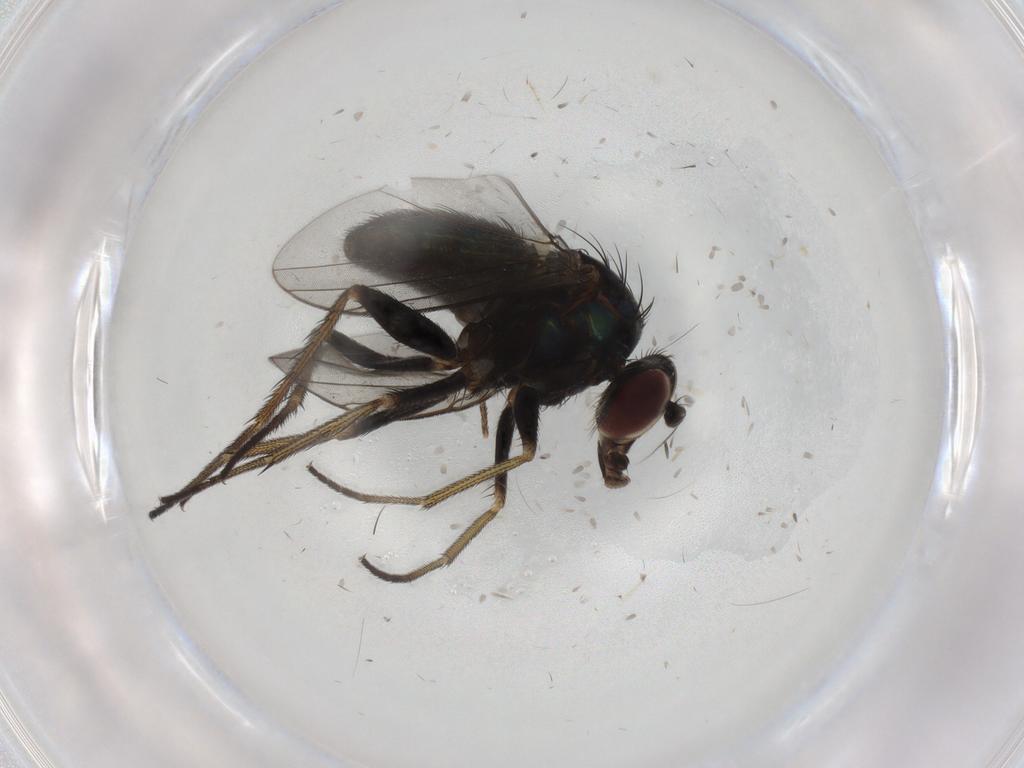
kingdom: Animalia
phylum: Arthropoda
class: Insecta
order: Diptera
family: Dolichopodidae
